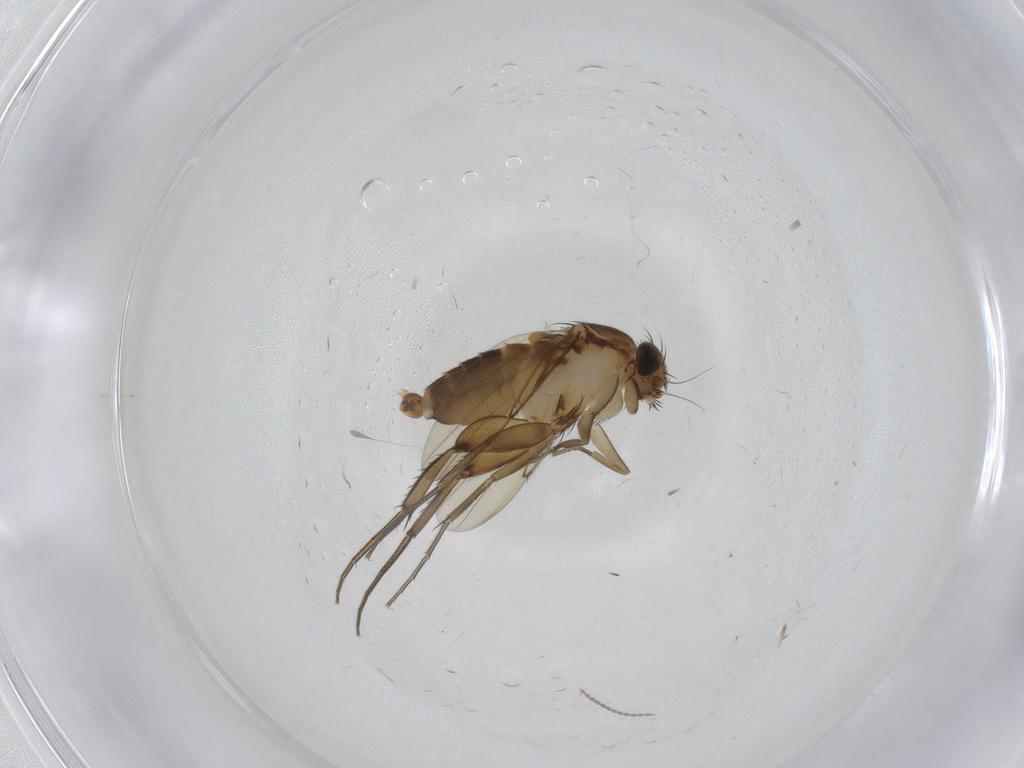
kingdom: Animalia
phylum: Arthropoda
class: Insecta
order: Diptera
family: Phoridae
